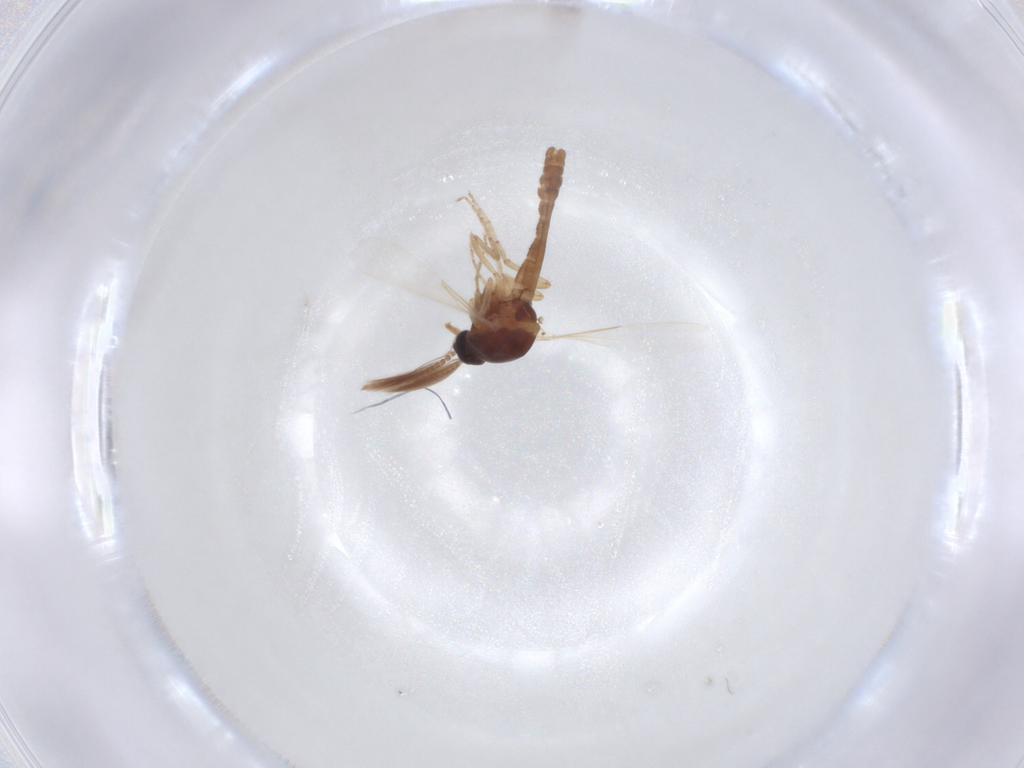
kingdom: Animalia
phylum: Arthropoda
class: Insecta
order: Diptera
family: Ceratopogonidae
